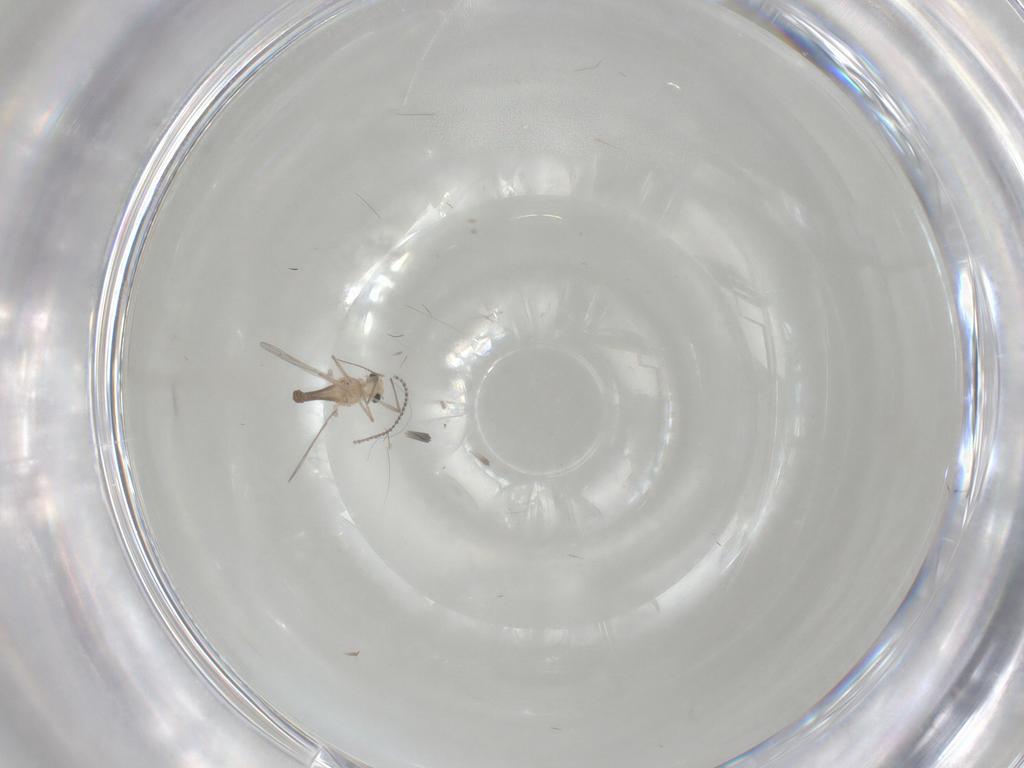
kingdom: Animalia
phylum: Arthropoda
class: Insecta
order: Diptera
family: Chironomidae
